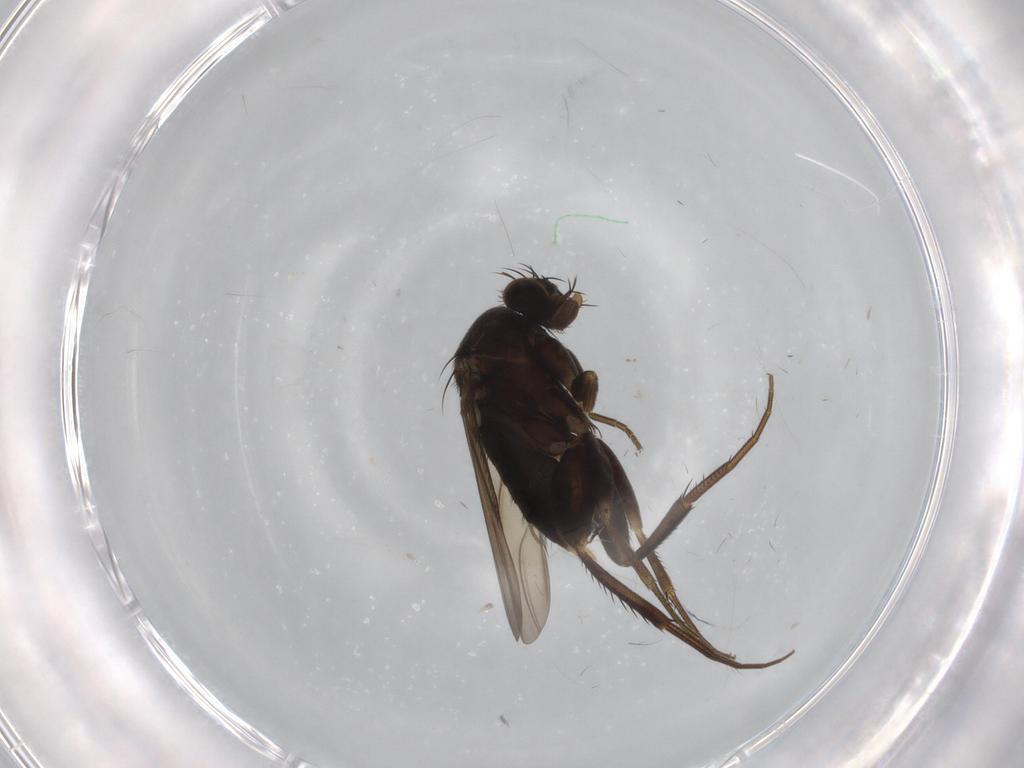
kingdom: Animalia
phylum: Arthropoda
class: Insecta
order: Diptera
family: Phoridae
